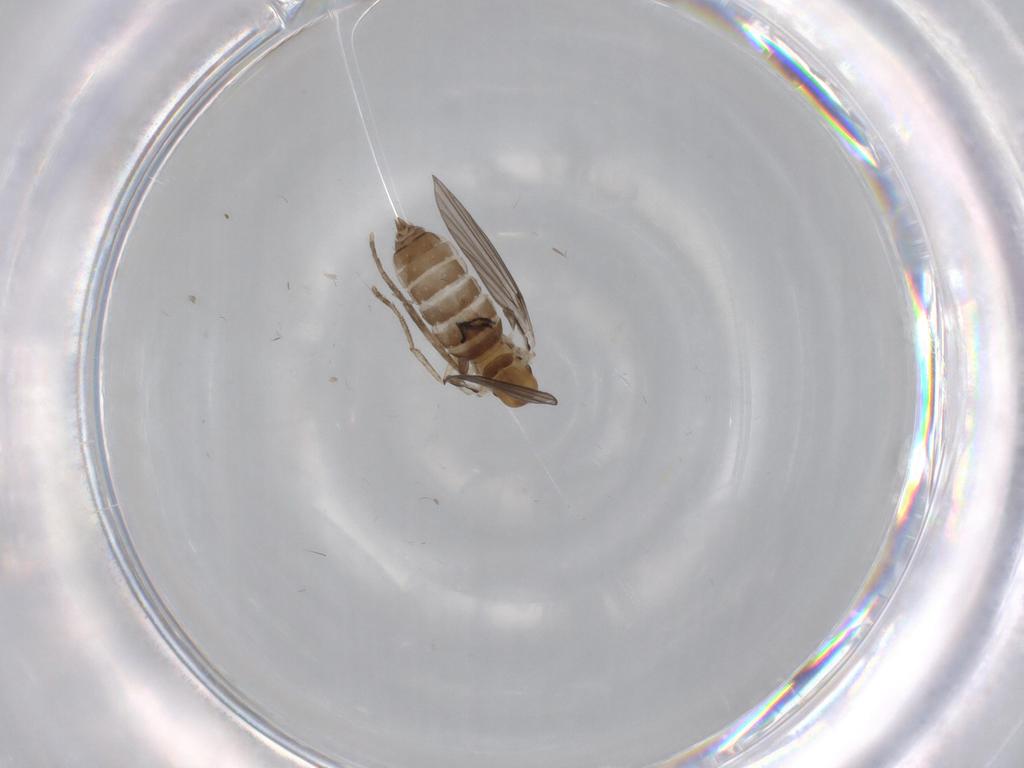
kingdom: Animalia
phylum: Arthropoda
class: Insecta
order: Diptera
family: Limoniidae
